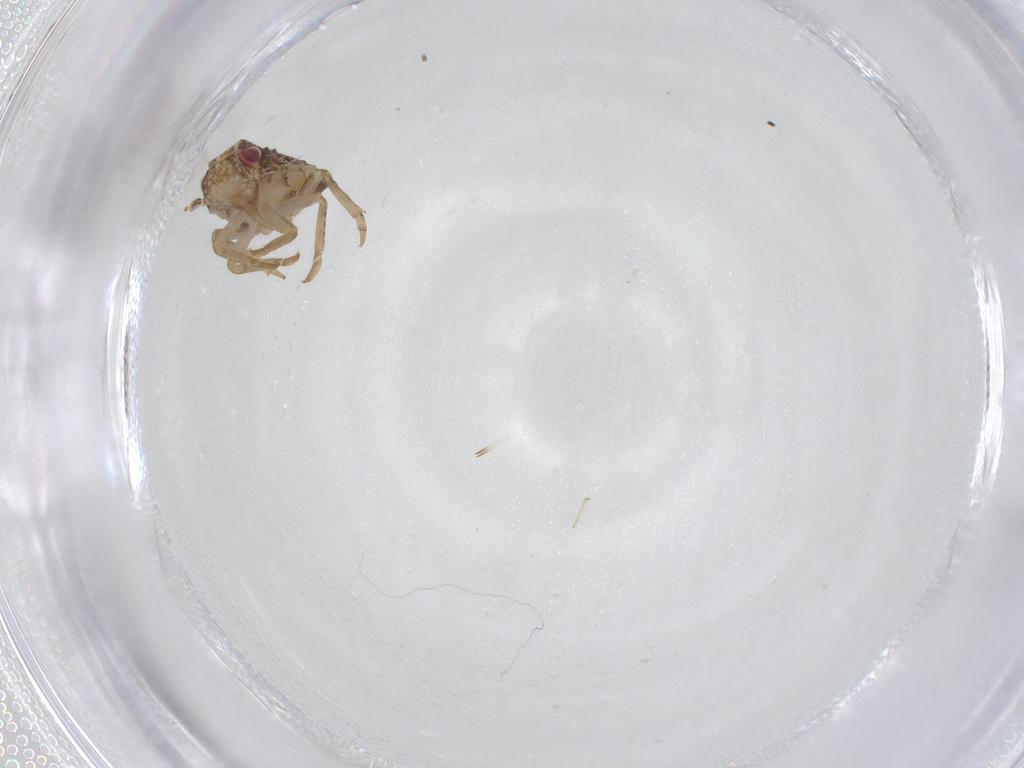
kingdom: Animalia
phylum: Arthropoda
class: Insecta
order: Hemiptera
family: Flatidae
